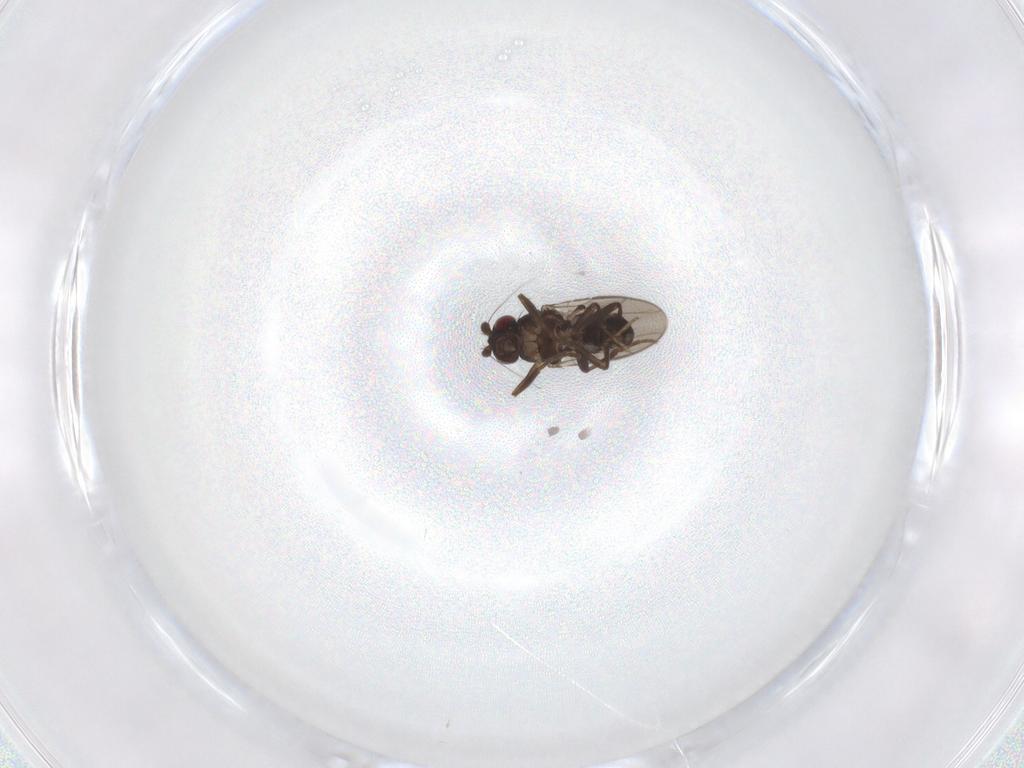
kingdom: Animalia
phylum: Arthropoda
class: Insecta
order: Diptera
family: Sphaeroceridae
